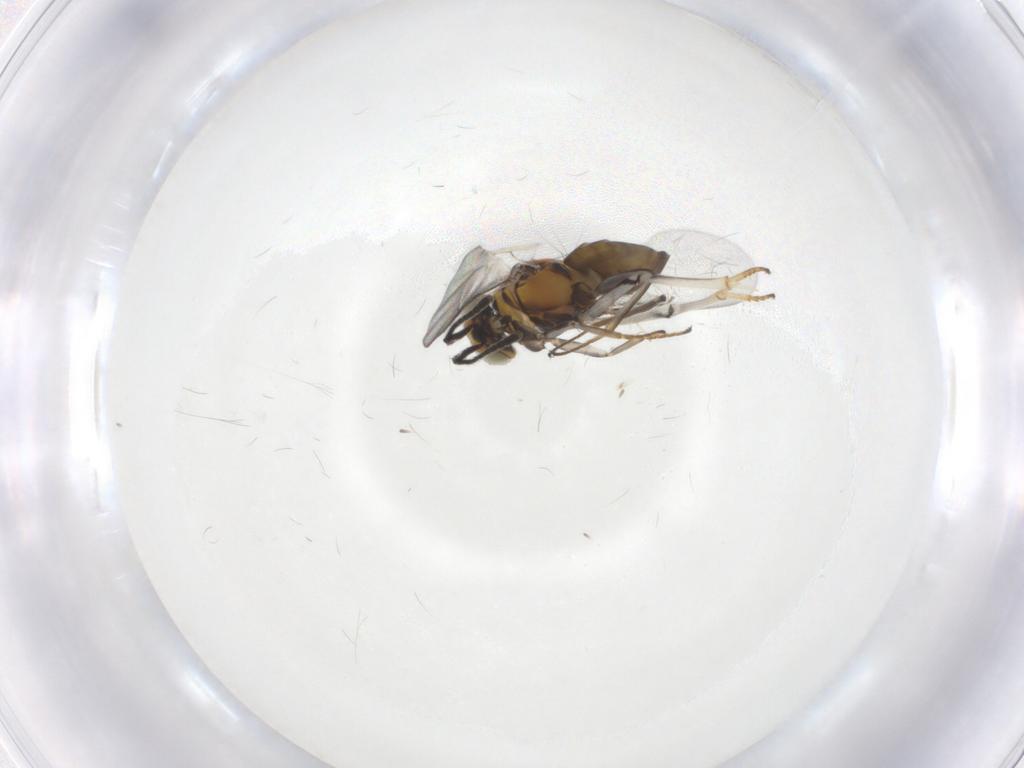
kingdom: Animalia
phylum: Arthropoda
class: Insecta
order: Hymenoptera
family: Encyrtidae
